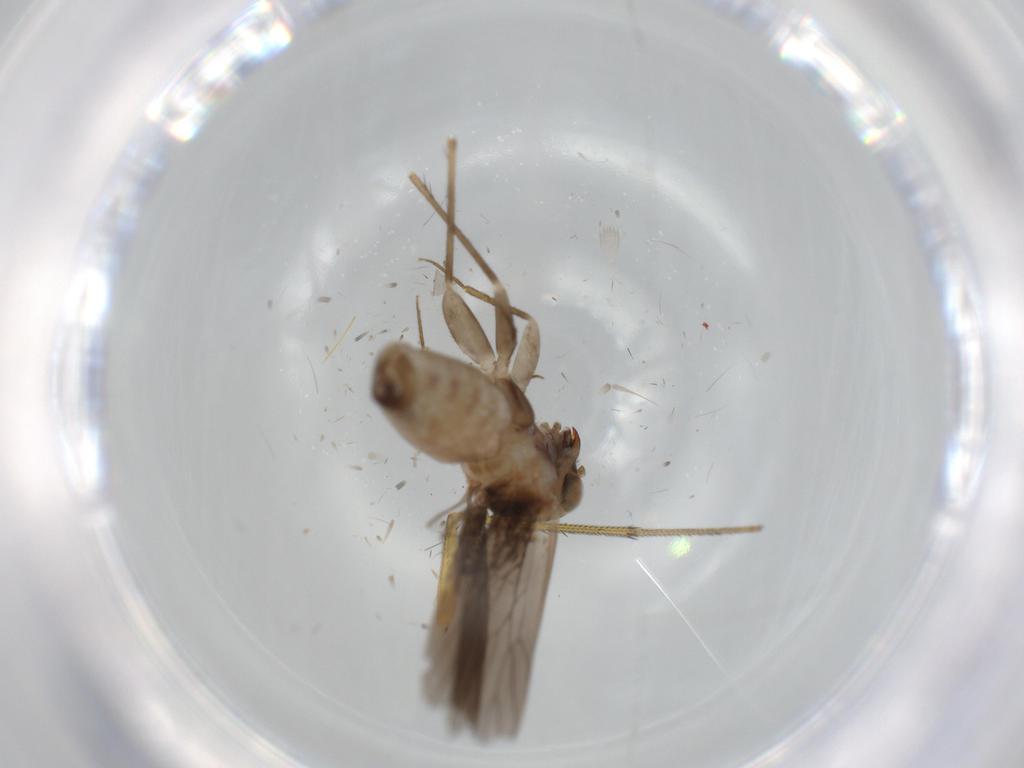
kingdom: Animalia
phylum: Arthropoda
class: Insecta
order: Psocodea
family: Lepidopsocidae
